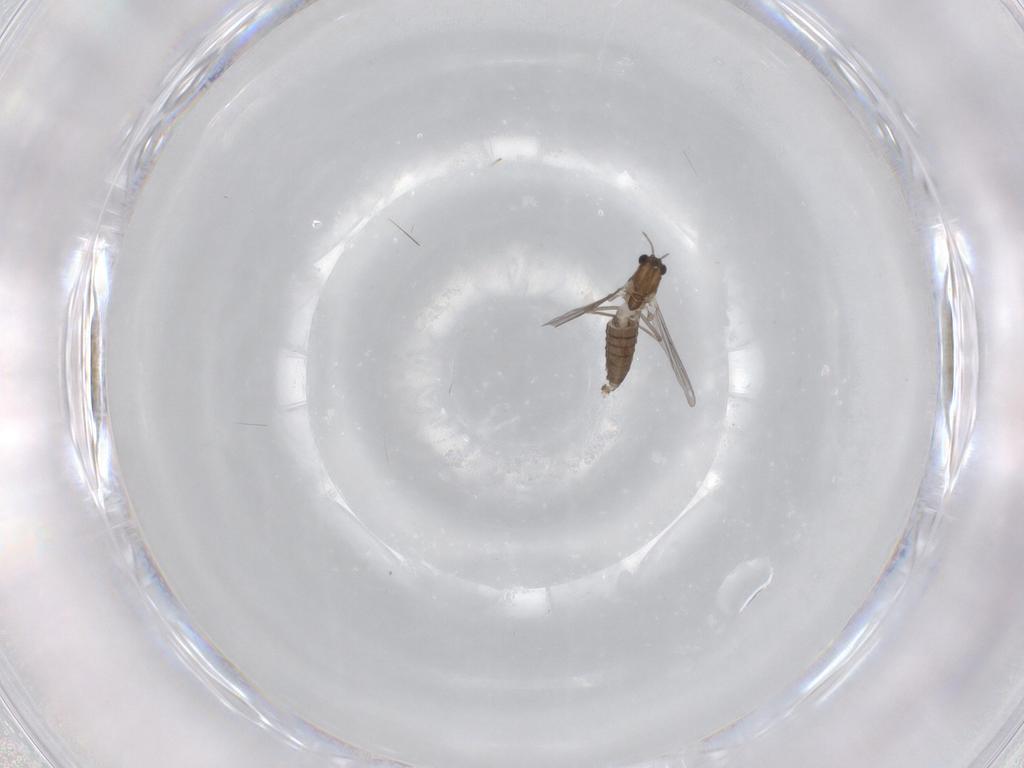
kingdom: Animalia
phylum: Arthropoda
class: Insecta
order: Diptera
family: Chironomidae
